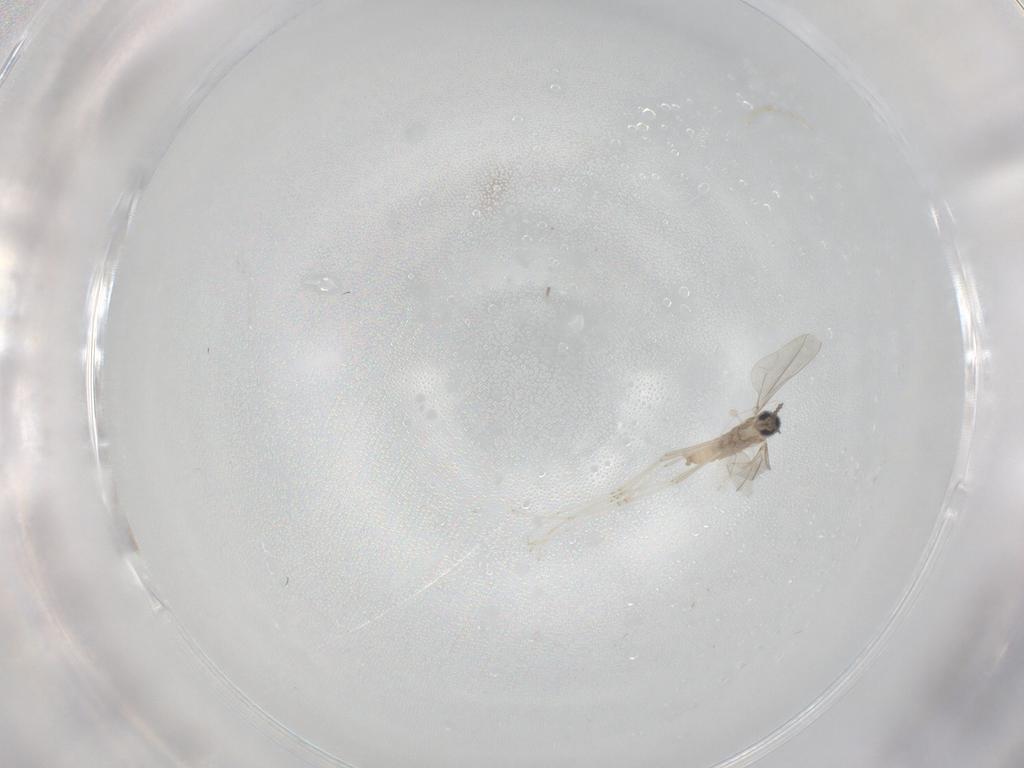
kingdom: Animalia
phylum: Arthropoda
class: Insecta
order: Diptera
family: Cecidomyiidae
